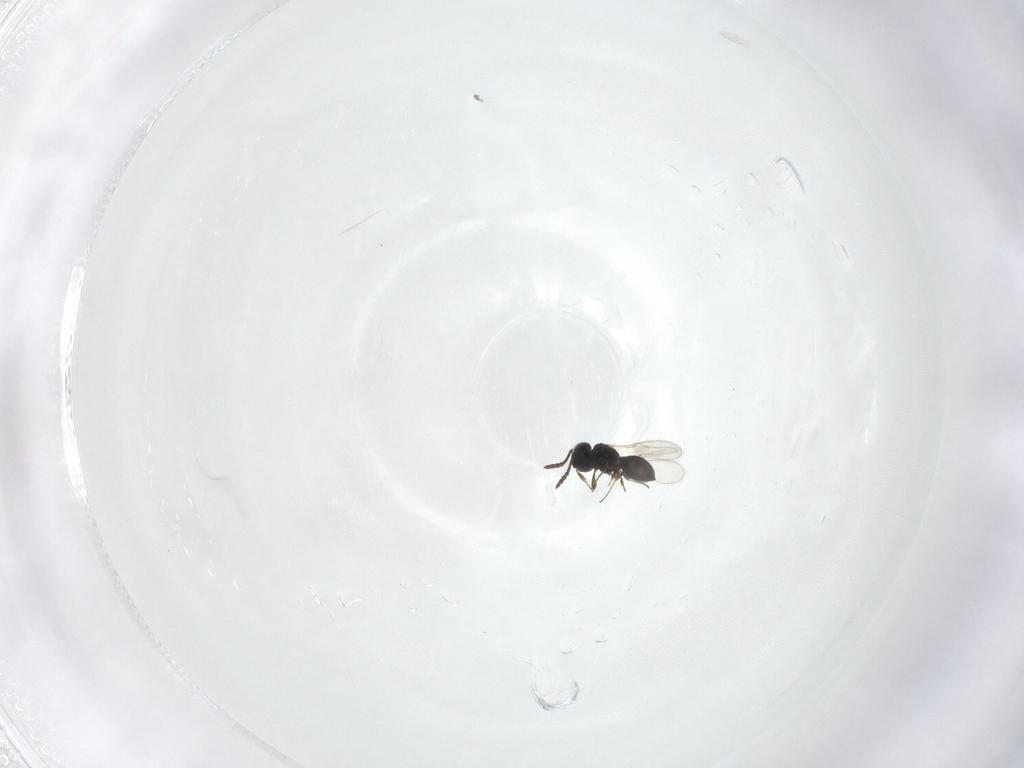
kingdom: Animalia
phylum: Arthropoda
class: Insecta
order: Hymenoptera
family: Scelionidae
